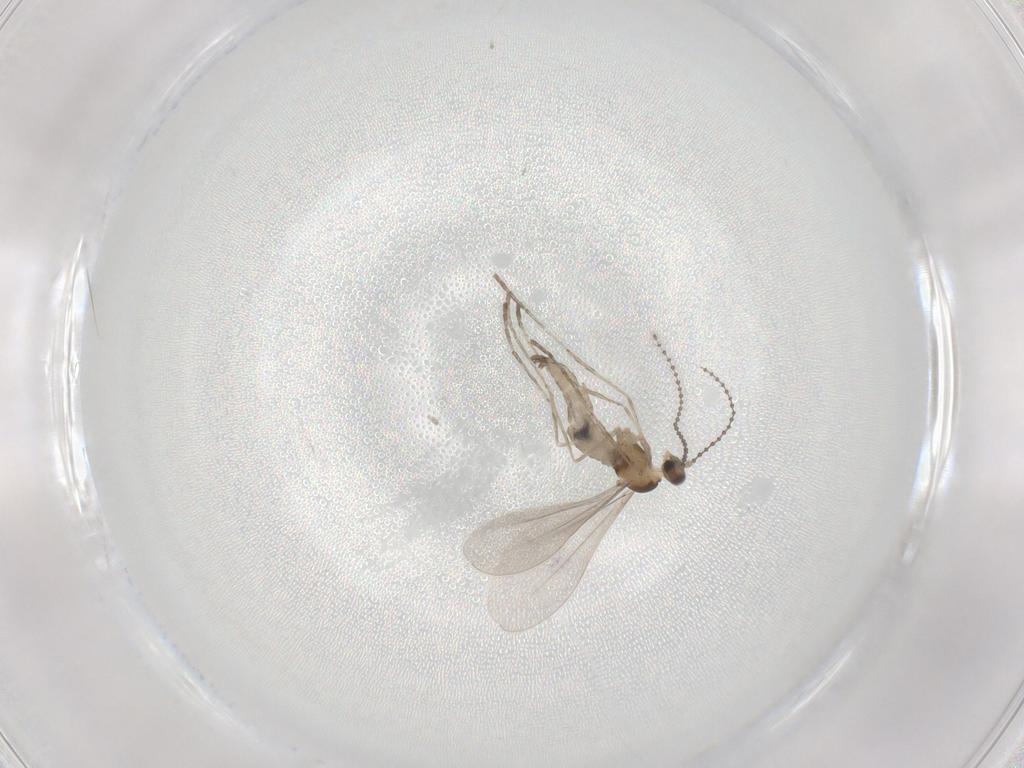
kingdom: Animalia
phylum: Arthropoda
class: Insecta
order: Diptera
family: Cecidomyiidae
